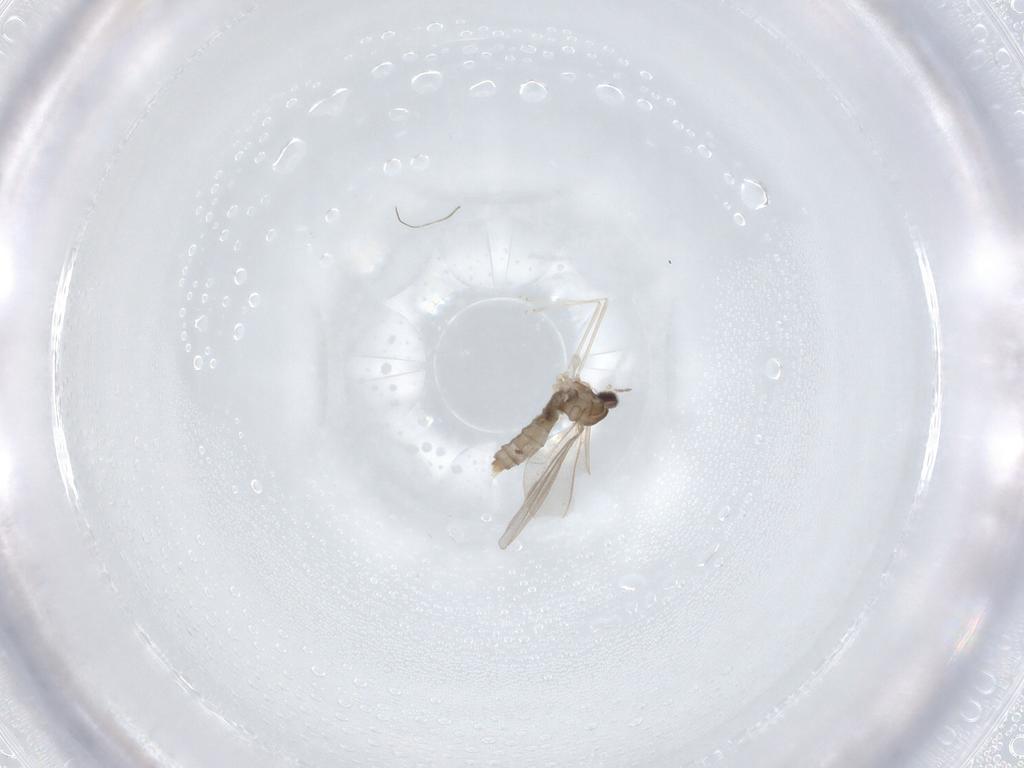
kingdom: Animalia
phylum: Arthropoda
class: Insecta
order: Diptera
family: Cecidomyiidae
